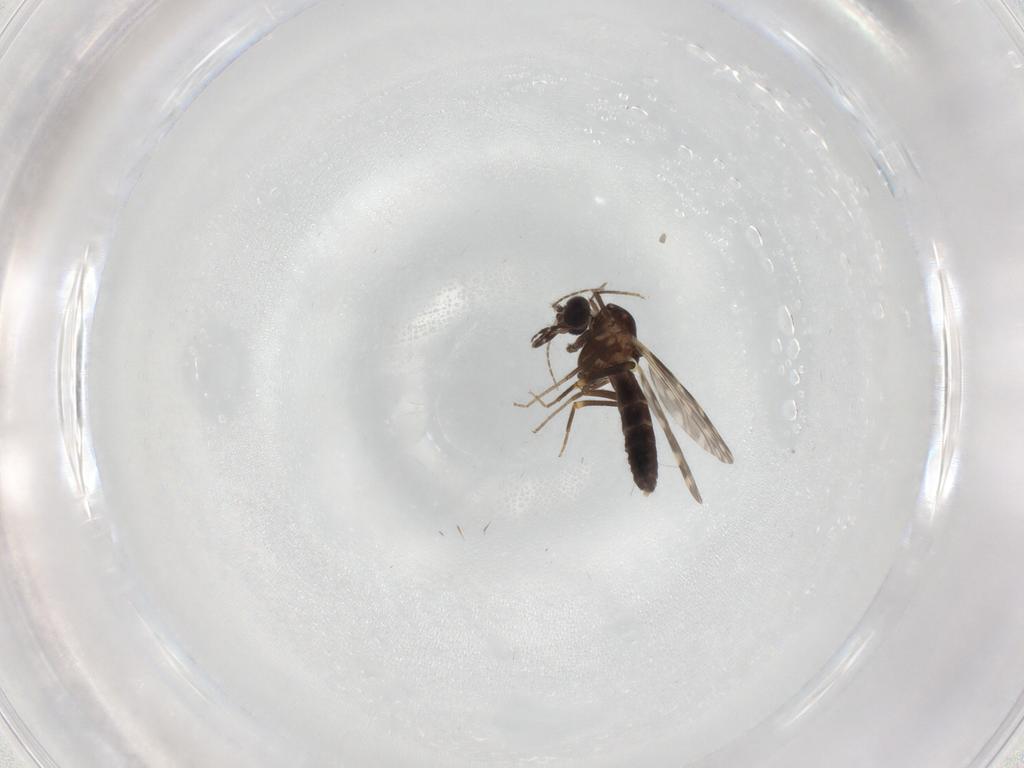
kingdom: Animalia
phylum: Arthropoda
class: Insecta
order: Diptera
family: Ceratopogonidae
